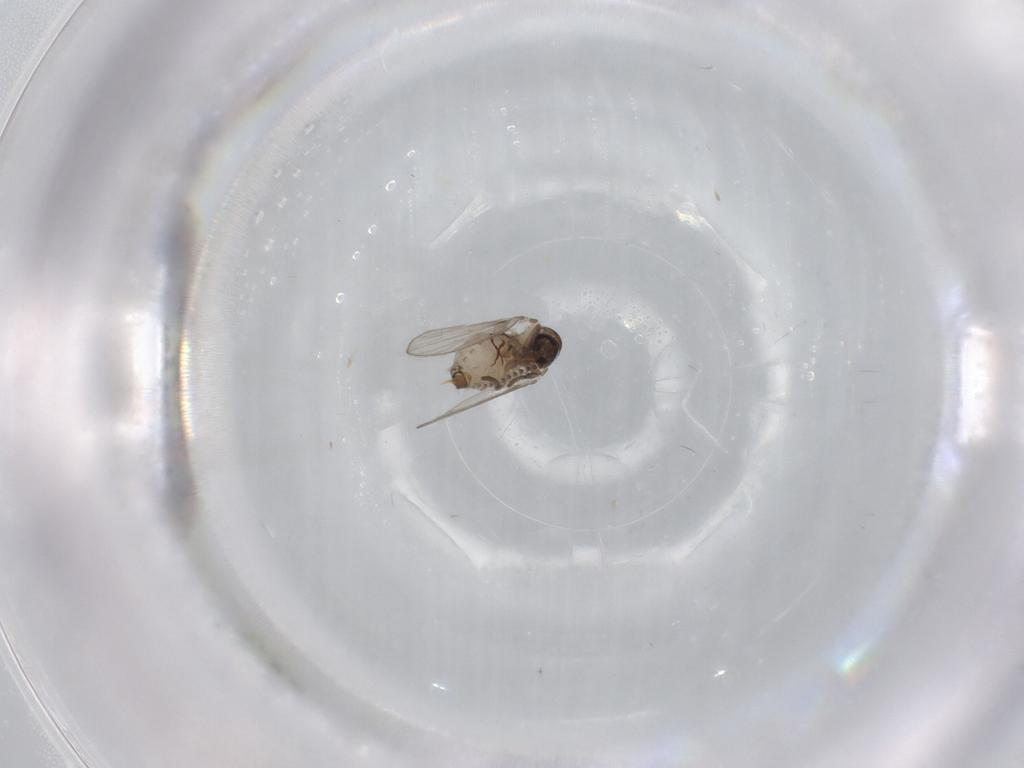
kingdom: Animalia
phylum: Arthropoda
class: Insecta
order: Diptera
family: Psychodidae
